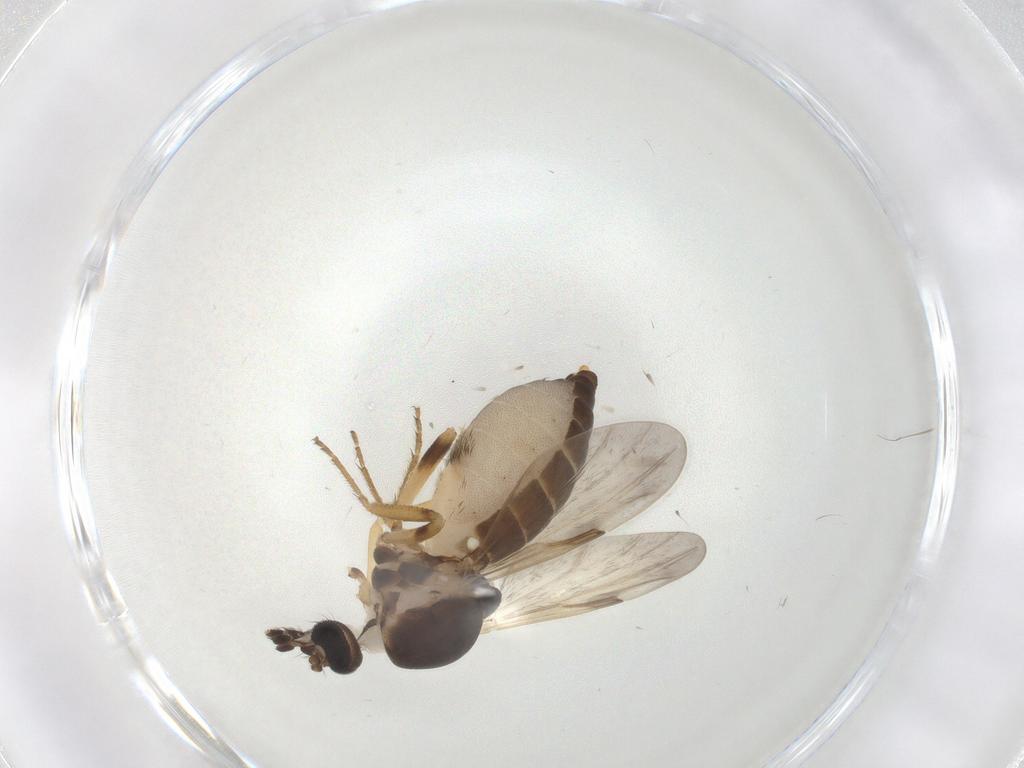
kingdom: Animalia
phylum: Arthropoda
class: Insecta
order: Diptera
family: Ceratopogonidae
